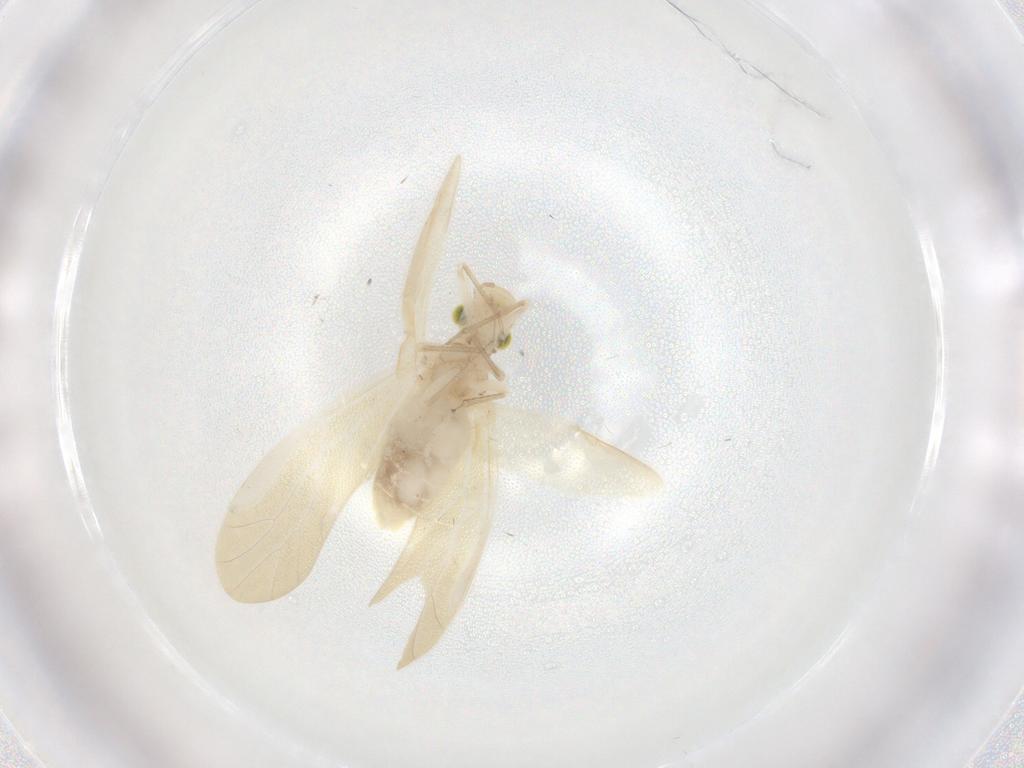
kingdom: Animalia
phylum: Arthropoda
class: Insecta
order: Psocodea
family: Caeciliusidae
